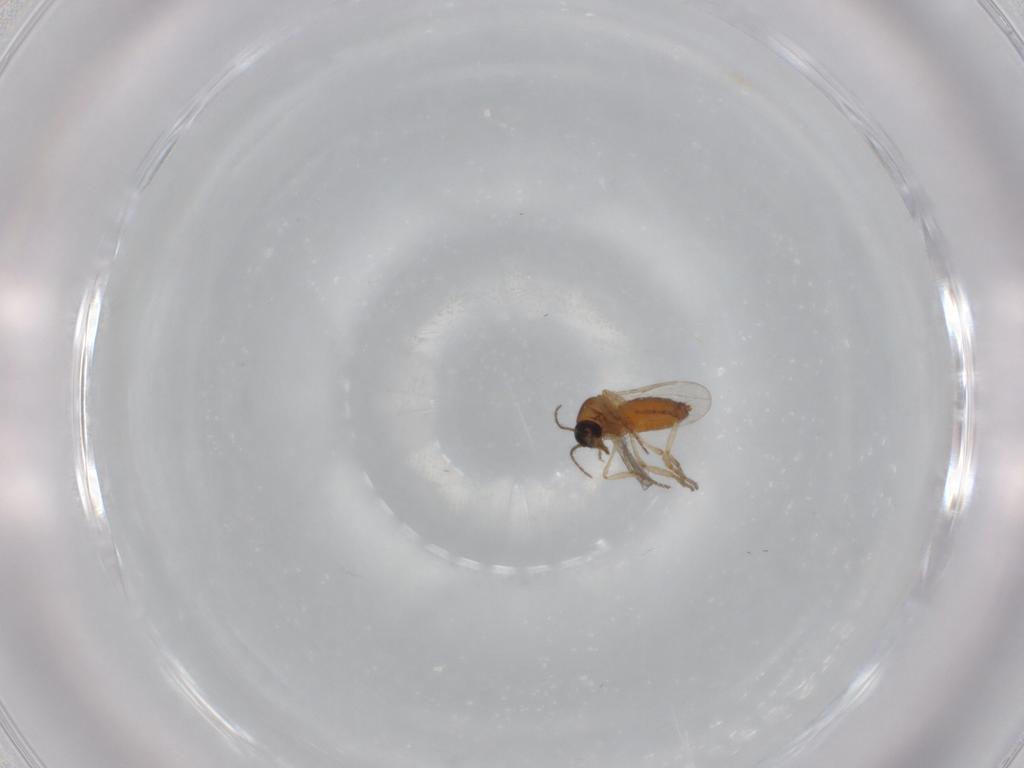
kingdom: Animalia
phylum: Arthropoda
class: Insecta
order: Diptera
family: Ceratopogonidae
